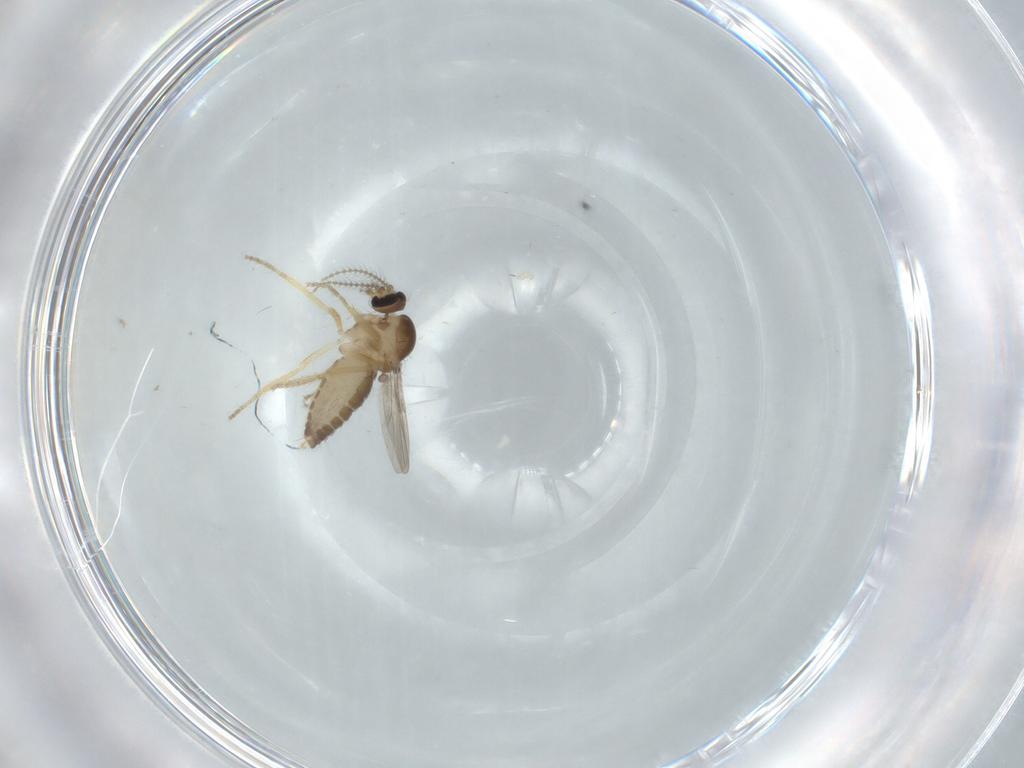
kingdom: Animalia
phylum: Arthropoda
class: Insecta
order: Diptera
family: Ceratopogonidae
